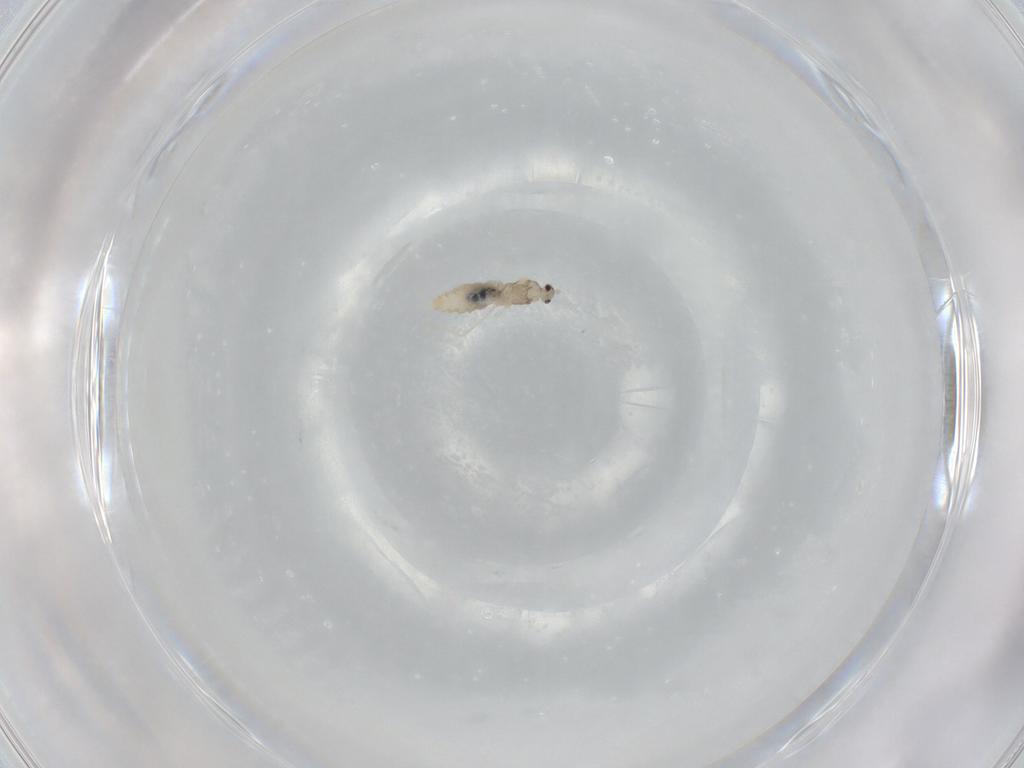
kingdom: Animalia
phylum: Arthropoda
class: Insecta
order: Diptera
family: Cecidomyiidae
